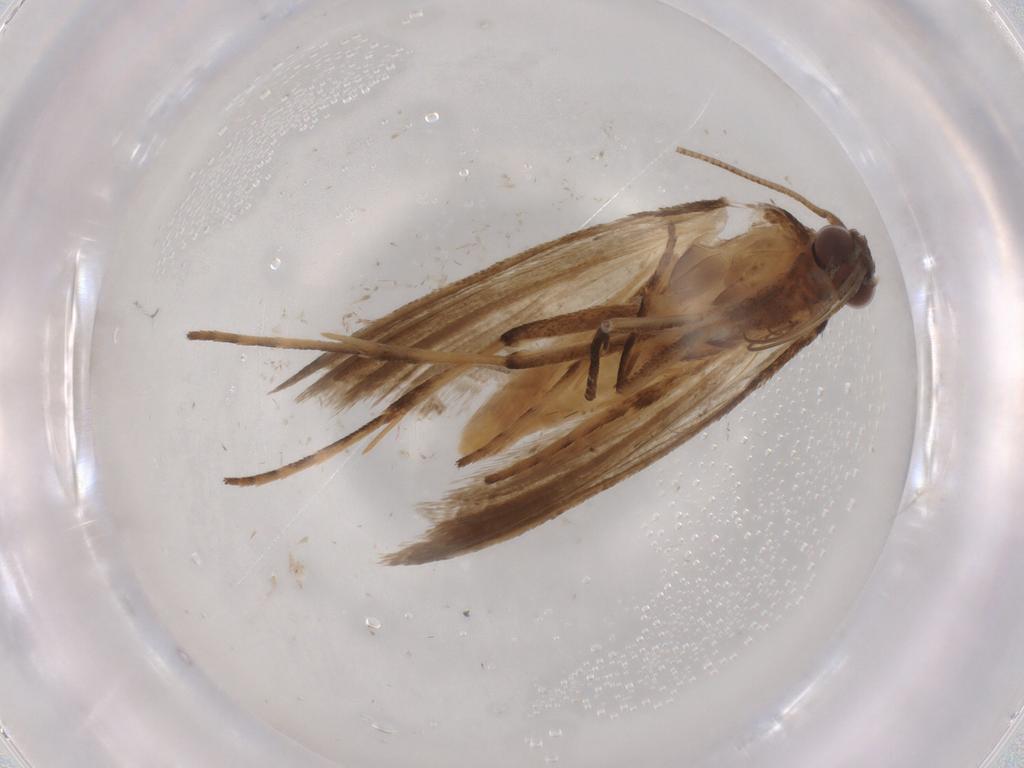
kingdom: Animalia
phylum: Arthropoda
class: Insecta
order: Lepidoptera
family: Noctuidae
